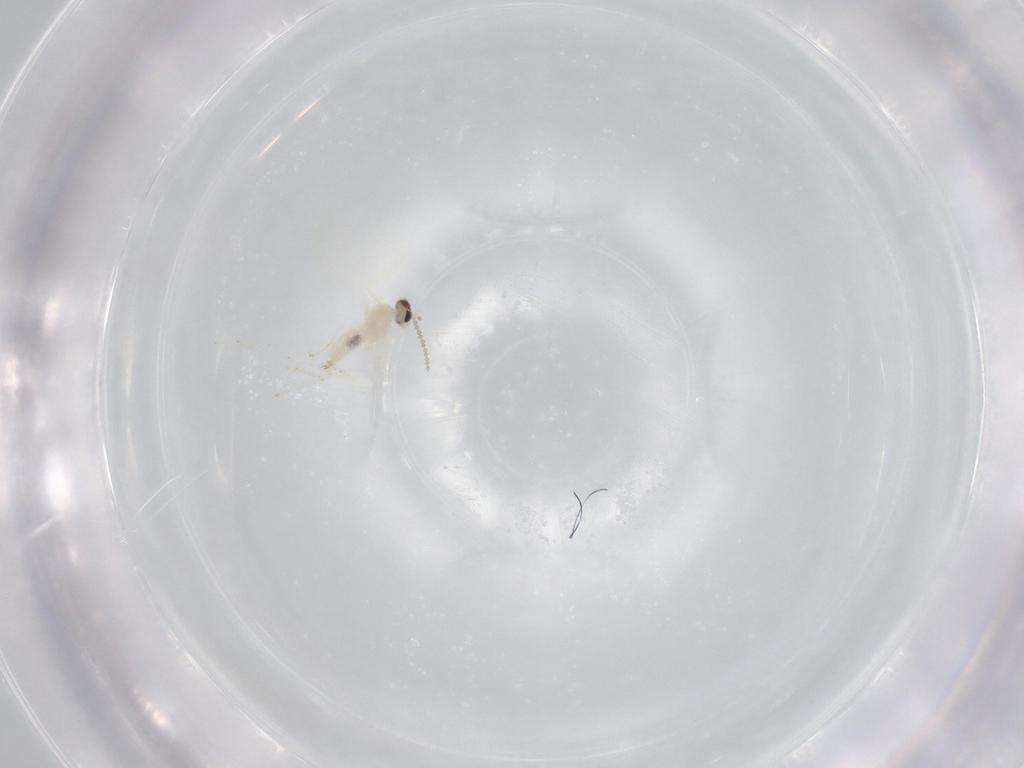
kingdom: Animalia
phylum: Arthropoda
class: Insecta
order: Diptera
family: Cecidomyiidae
